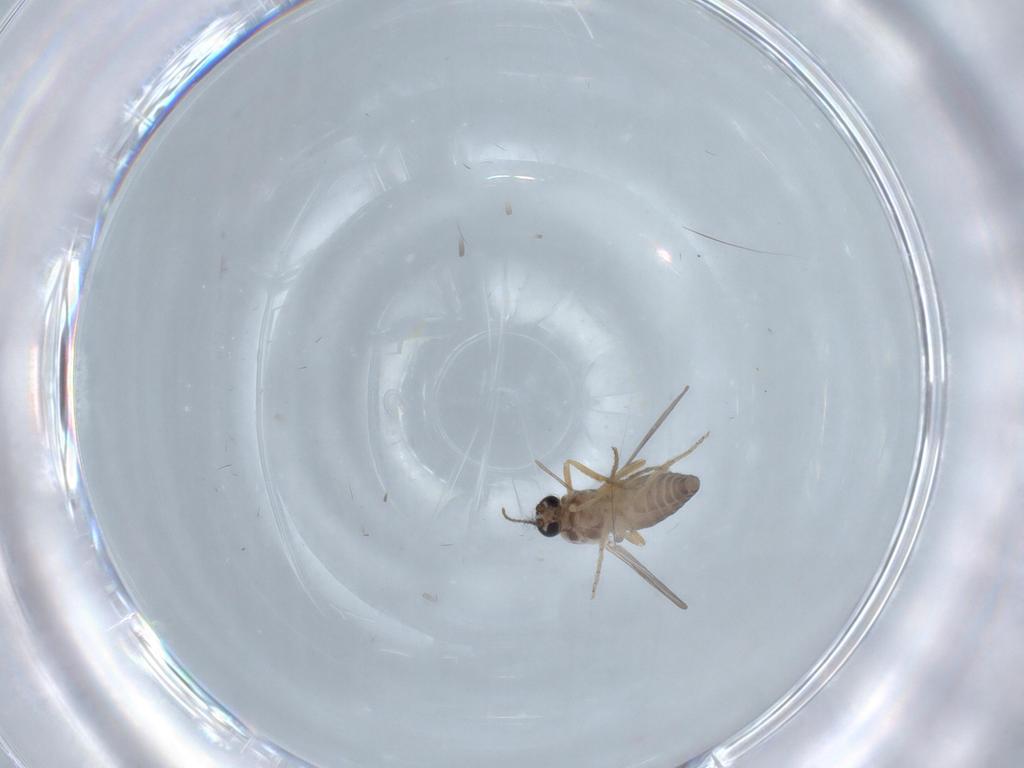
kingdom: Animalia
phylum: Arthropoda
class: Insecta
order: Diptera
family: Ceratopogonidae
